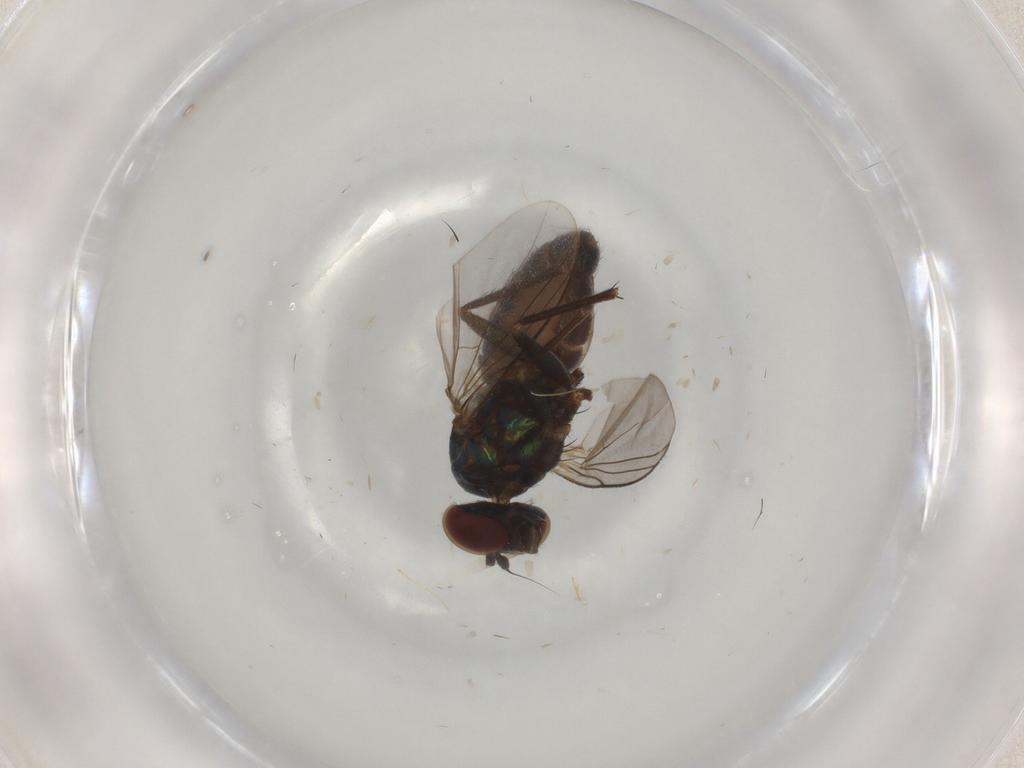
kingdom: Animalia
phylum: Arthropoda
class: Insecta
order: Diptera
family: Dolichopodidae
